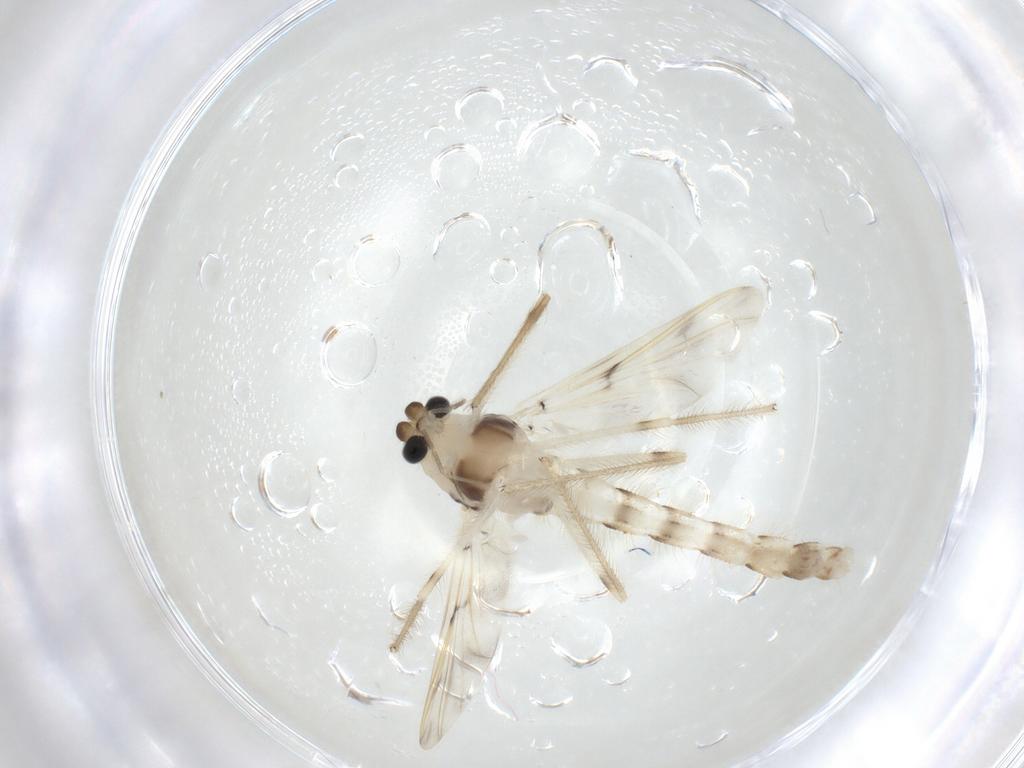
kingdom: Animalia
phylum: Arthropoda
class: Insecta
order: Diptera
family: Chironomidae
